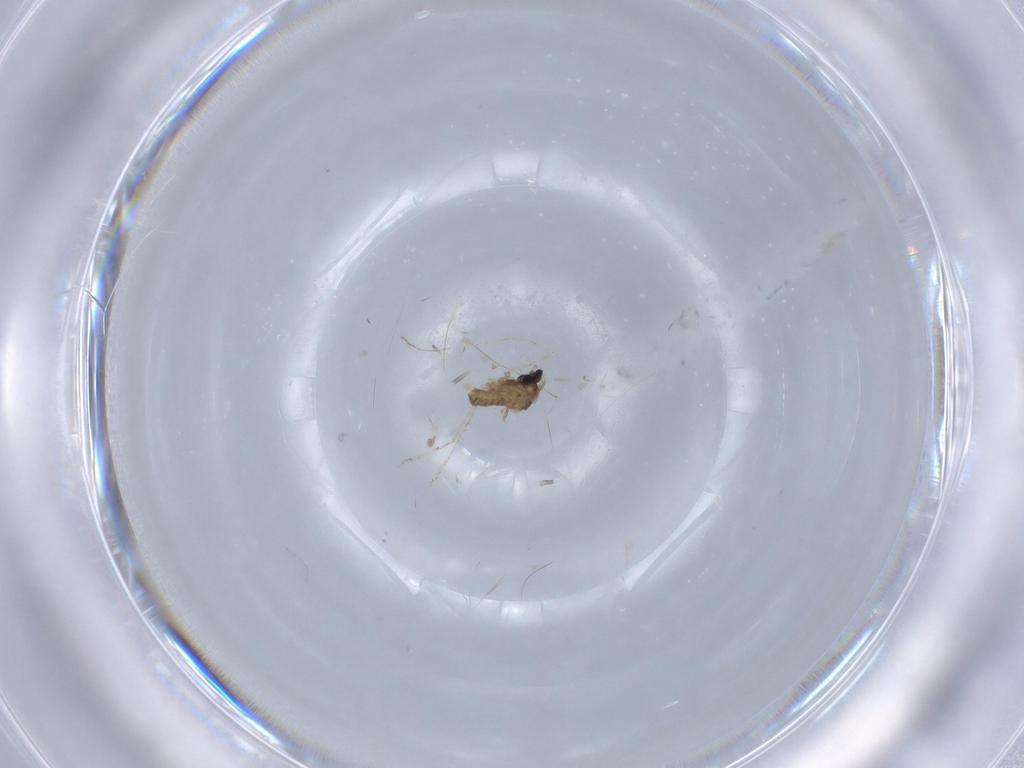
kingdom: Animalia
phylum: Arthropoda
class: Insecta
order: Diptera
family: Cecidomyiidae
